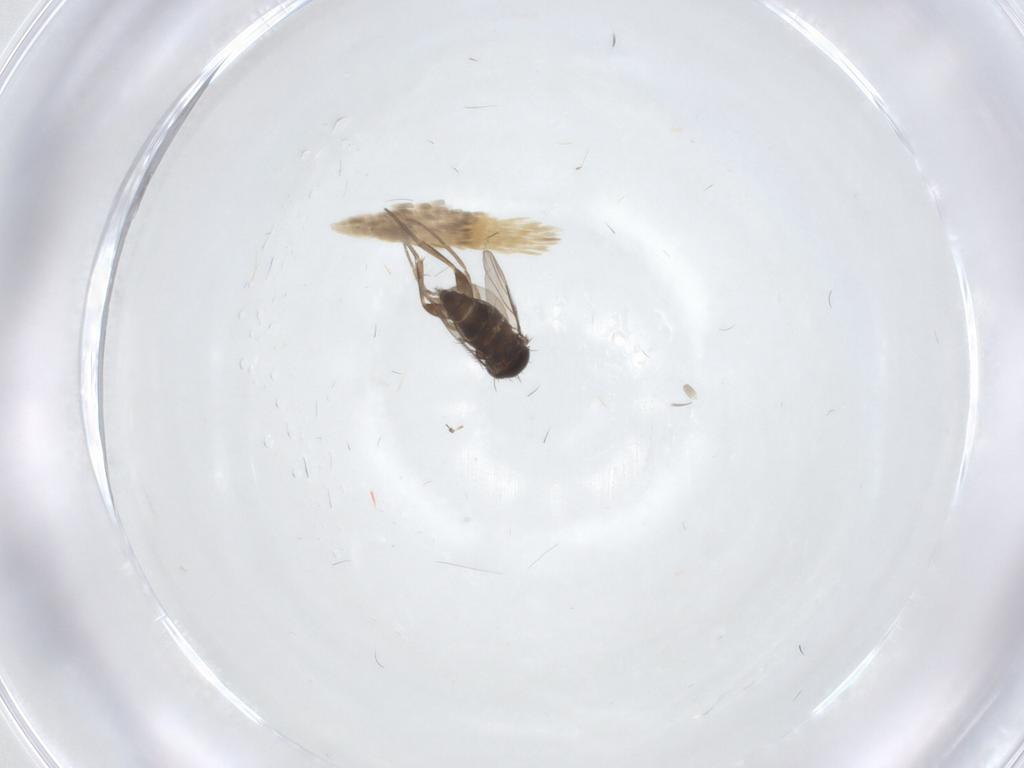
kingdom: Animalia
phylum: Arthropoda
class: Insecta
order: Diptera
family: Phoridae
